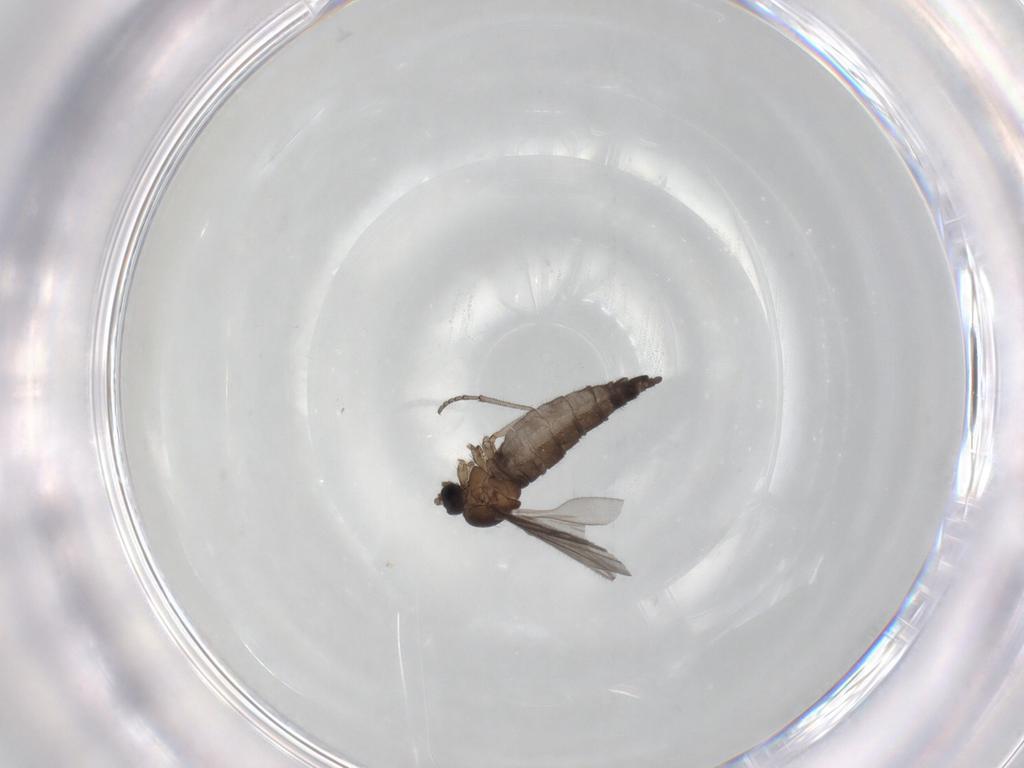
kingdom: Animalia
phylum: Arthropoda
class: Insecta
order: Diptera
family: Sciaridae
